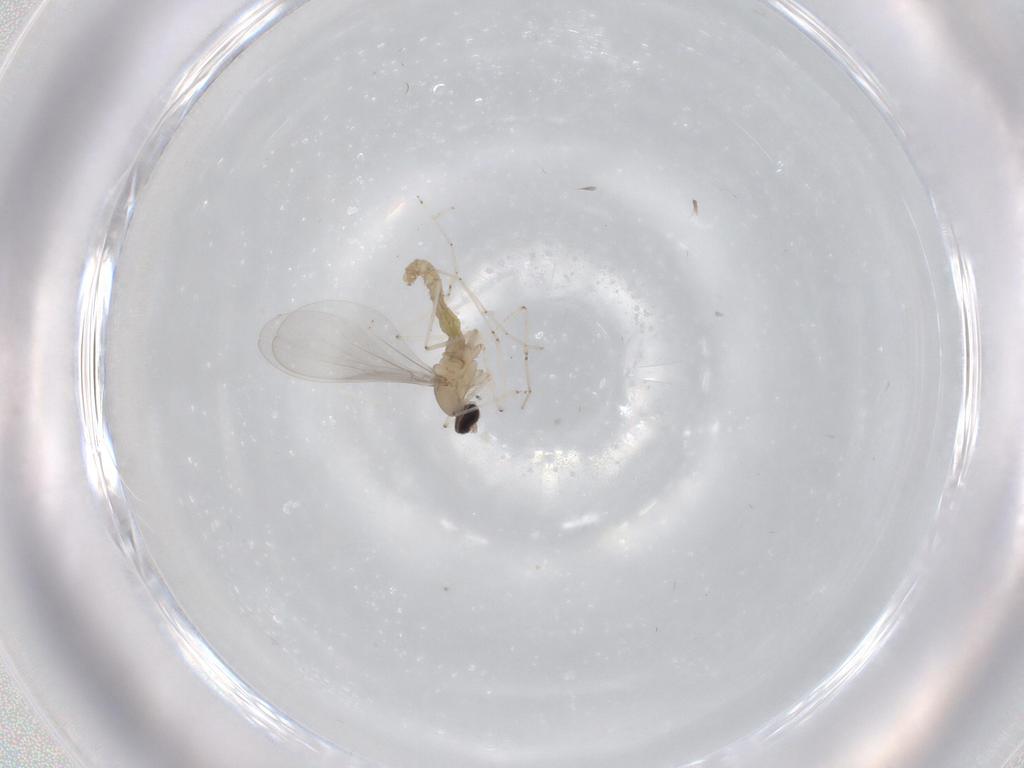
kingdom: Animalia
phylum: Arthropoda
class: Insecta
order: Diptera
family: Cecidomyiidae
